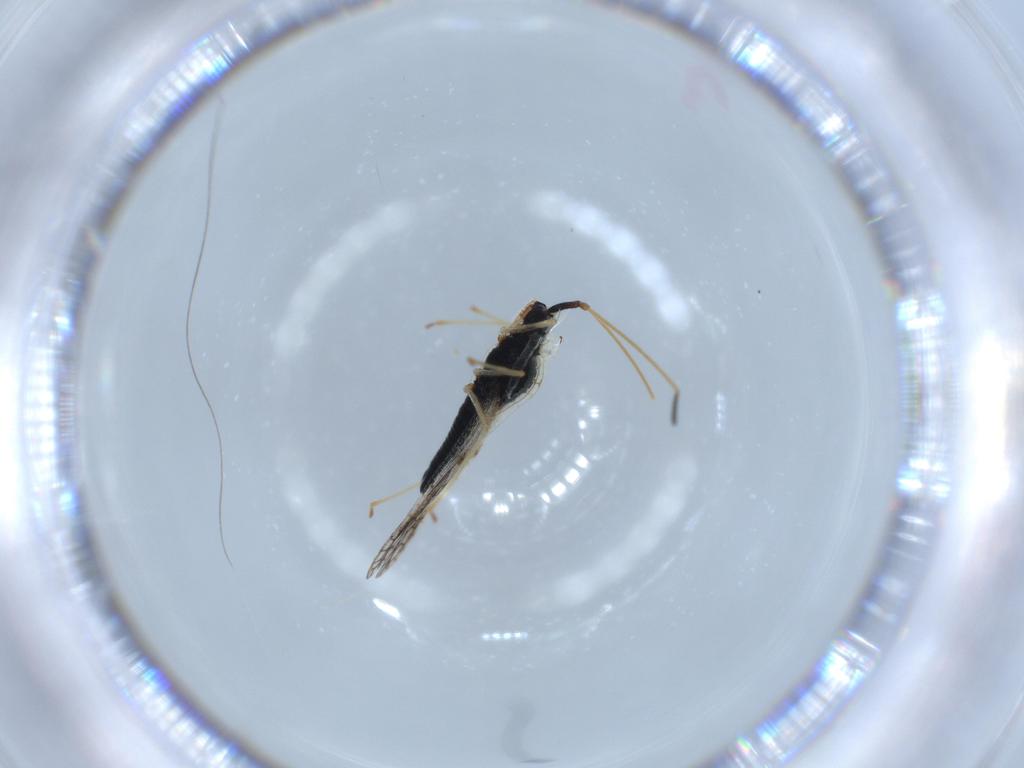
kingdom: Animalia
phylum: Arthropoda
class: Insecta
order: Hemiptera
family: Tingidae
